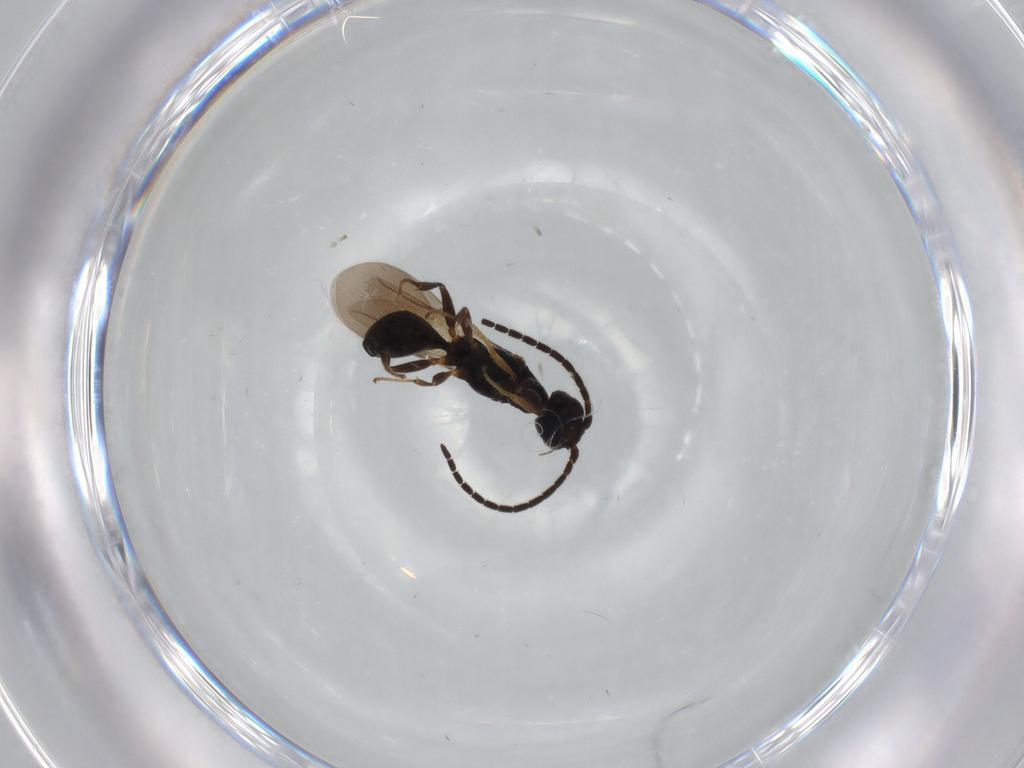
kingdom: Animalia
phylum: Arthropoda
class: Insecta
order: Hymenoptera
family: Bethylidae
